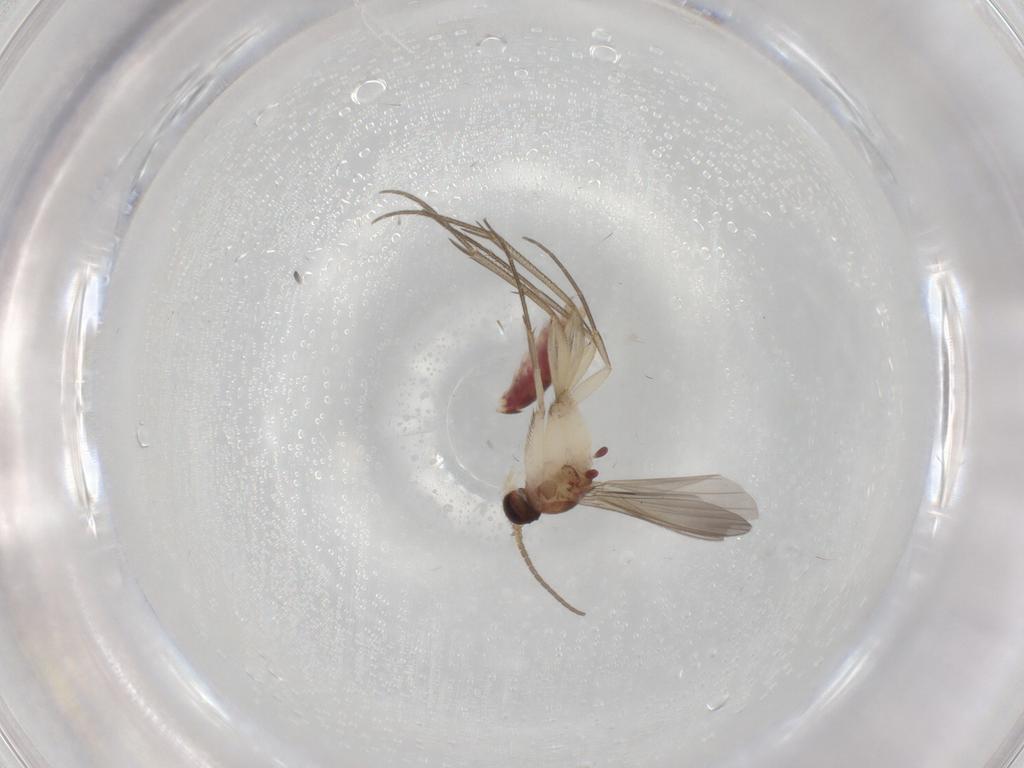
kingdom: Animalia
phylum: Arthropoda
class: Insecta
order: Diptera
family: Mycetophilidae
